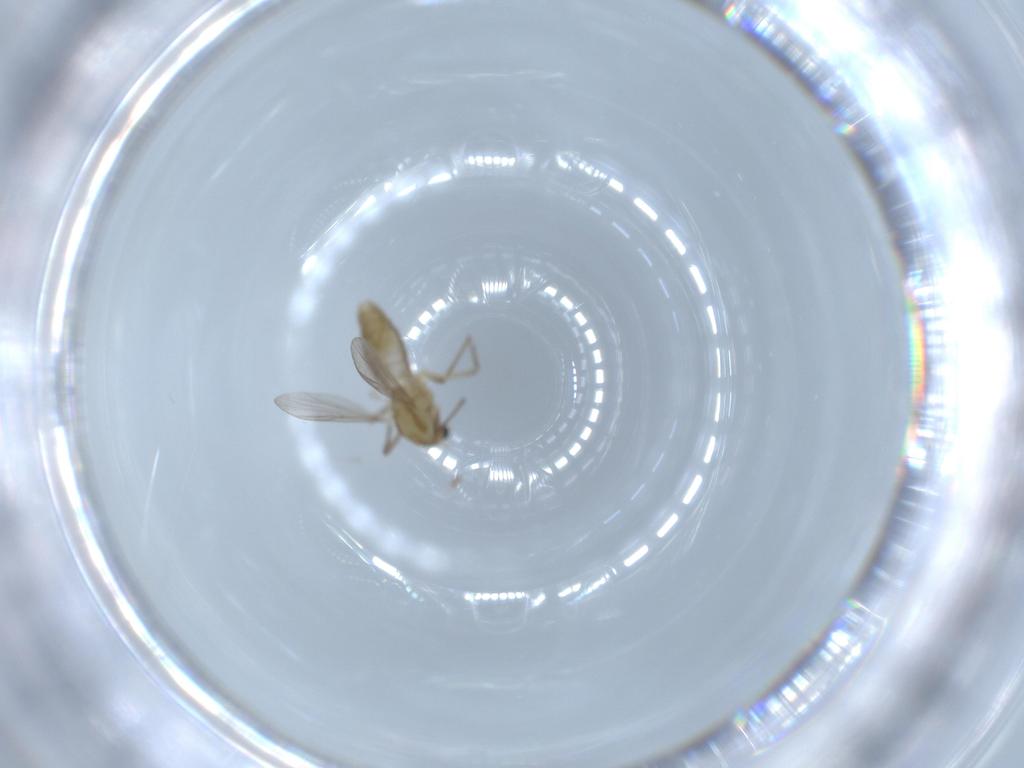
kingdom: Animalia
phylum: Arthropoda
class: Insecta
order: Diptera
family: Chironomidae
